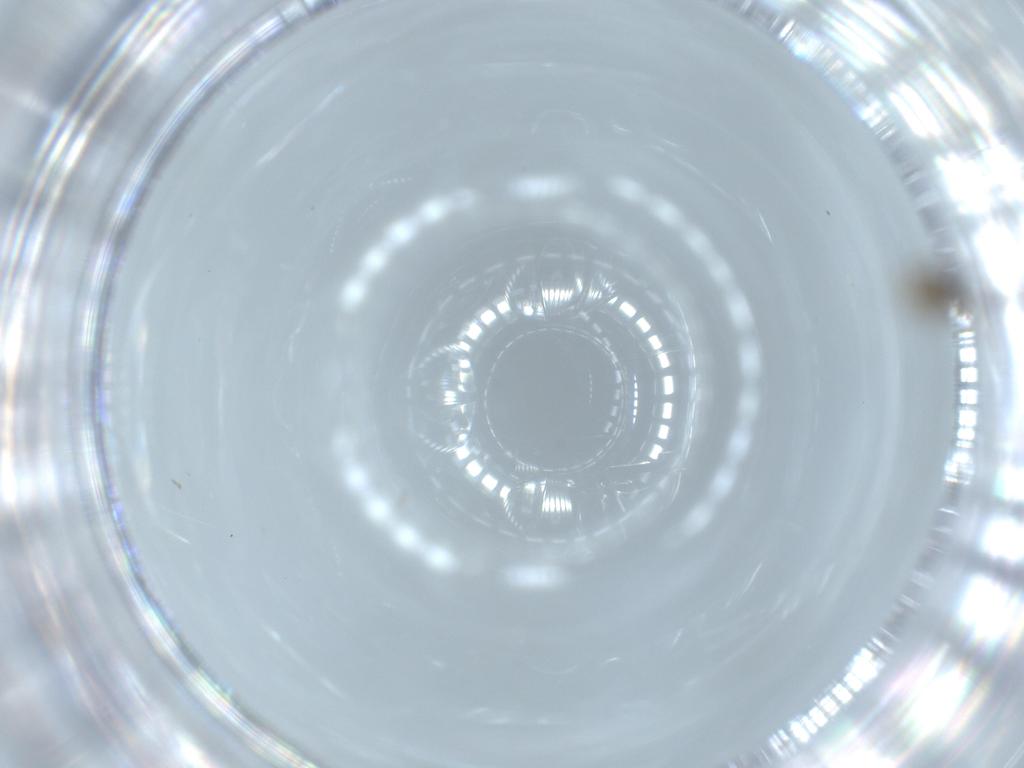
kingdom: Animalia
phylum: Arthropoda
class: Insecta
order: Diptera
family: Cecidomyiidae
